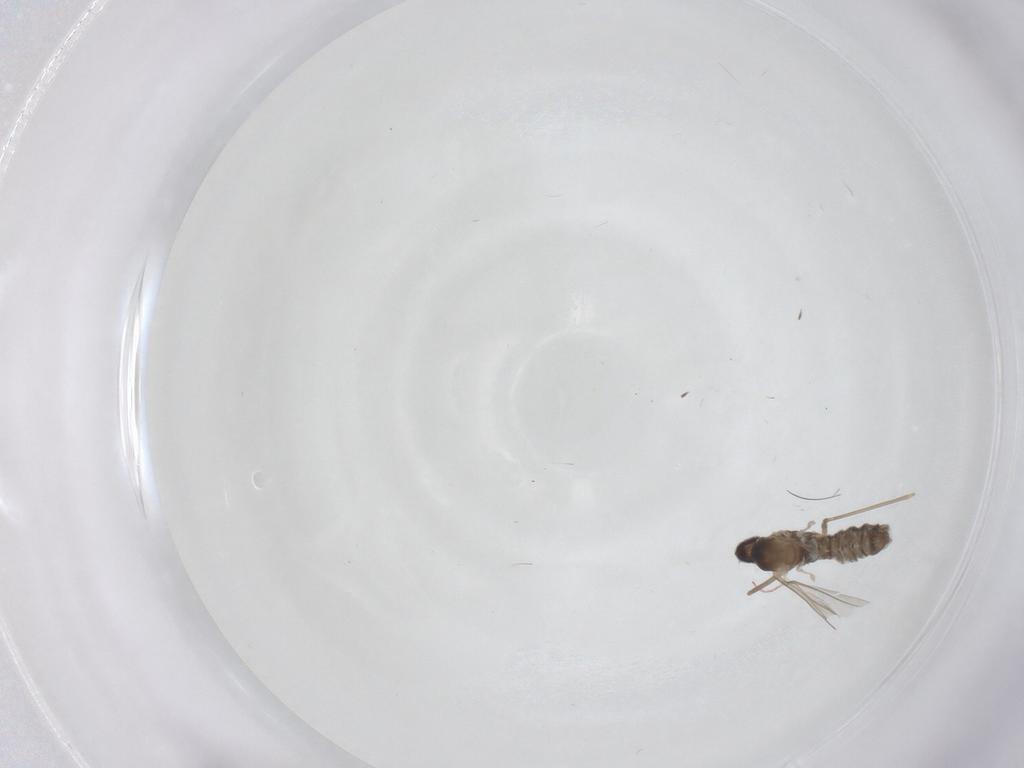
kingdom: Animalia
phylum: Arthropoda
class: Insecta
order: Diptera
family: Cecidomyiidae
